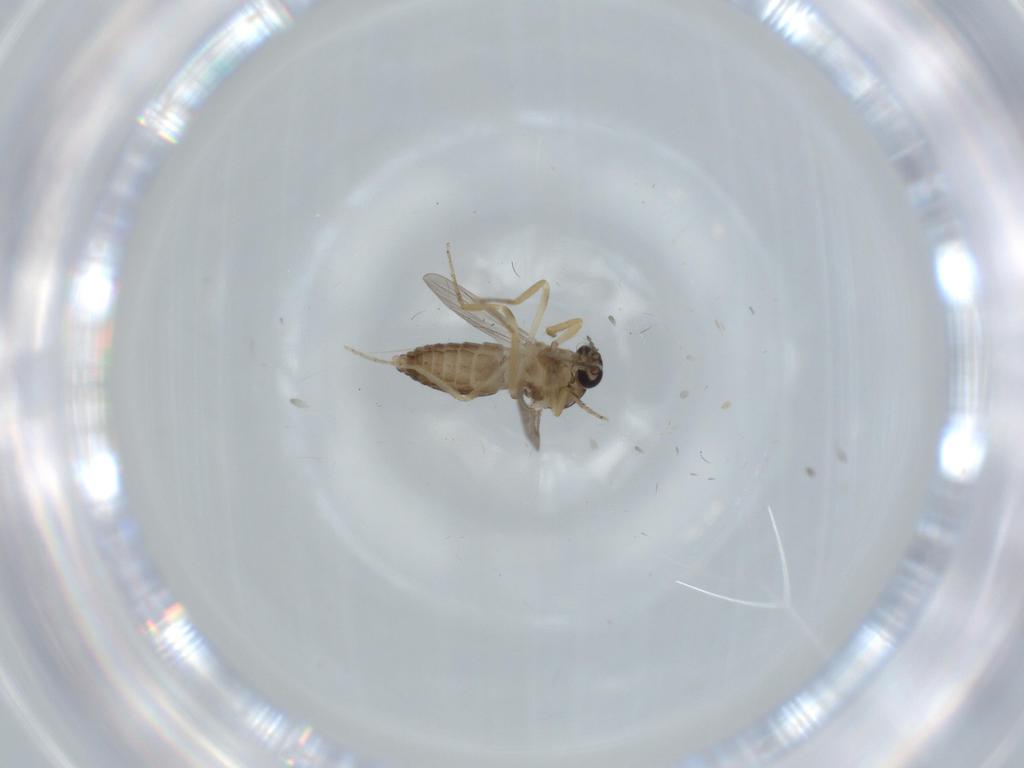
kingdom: Animalia
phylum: Arthropoda
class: Insecta
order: Diptera
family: Ceratopogonidae
